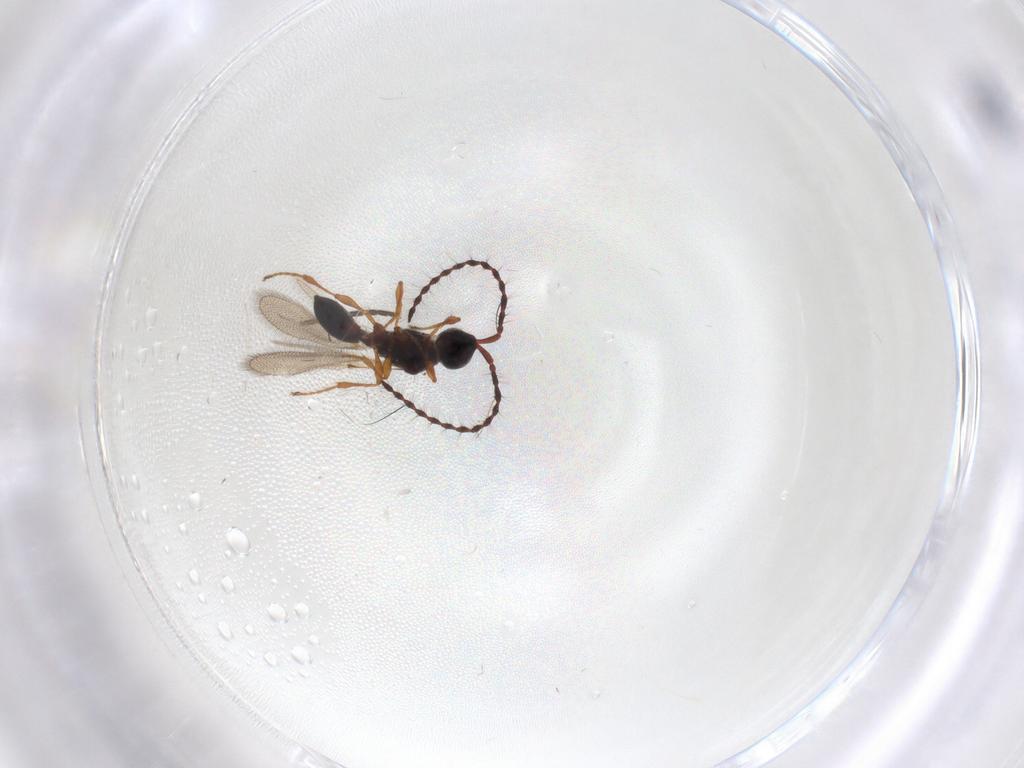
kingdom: Animalia
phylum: Arthropoda
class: Insecta
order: Hymenoptera
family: Diapriidae
